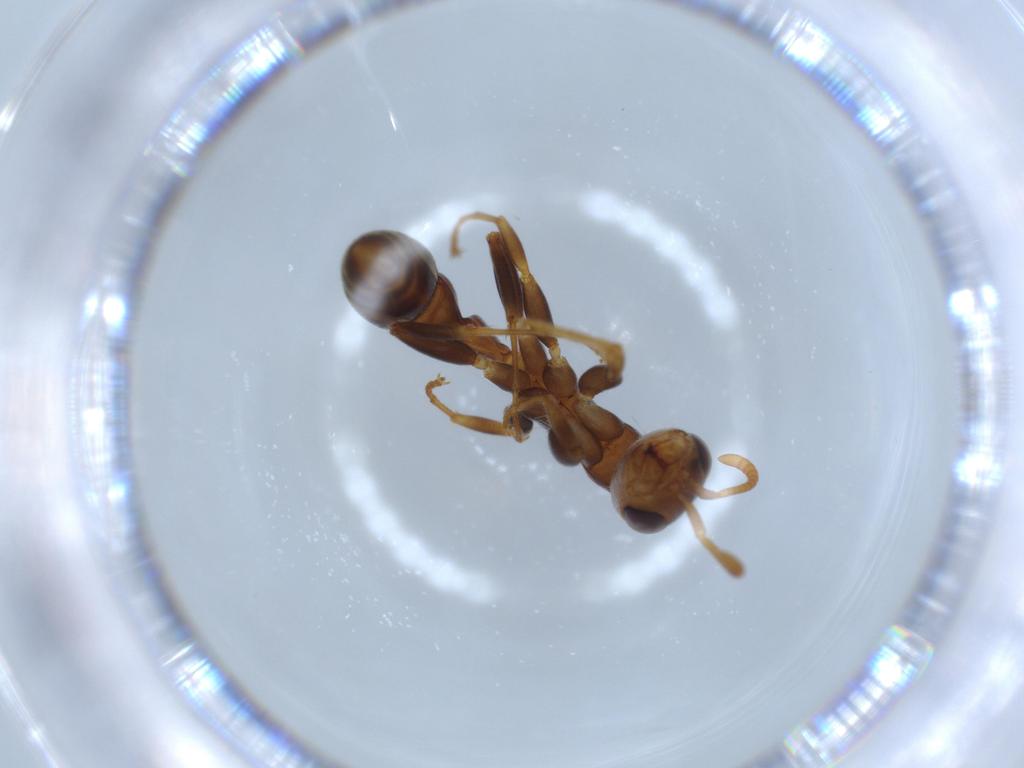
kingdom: Animalia
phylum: Arthropoda
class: Insecta
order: Hymenoptera
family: Formicidae
